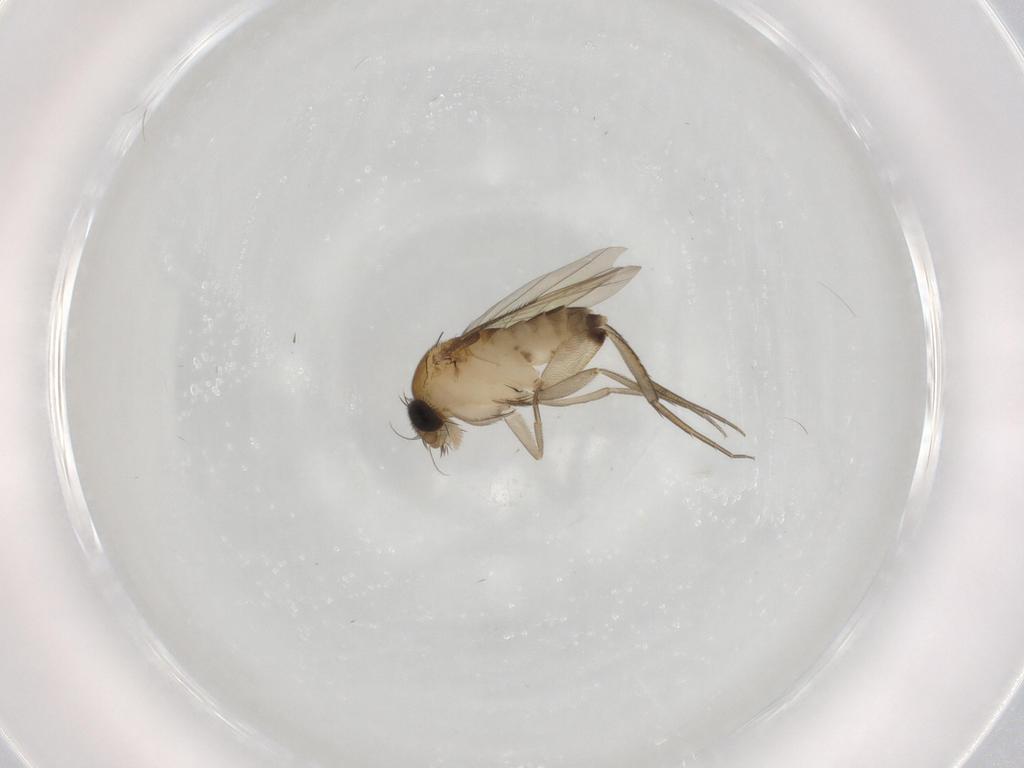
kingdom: Animalia
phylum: Arthropoda
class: Insecta
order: Diptera
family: Phoridae
